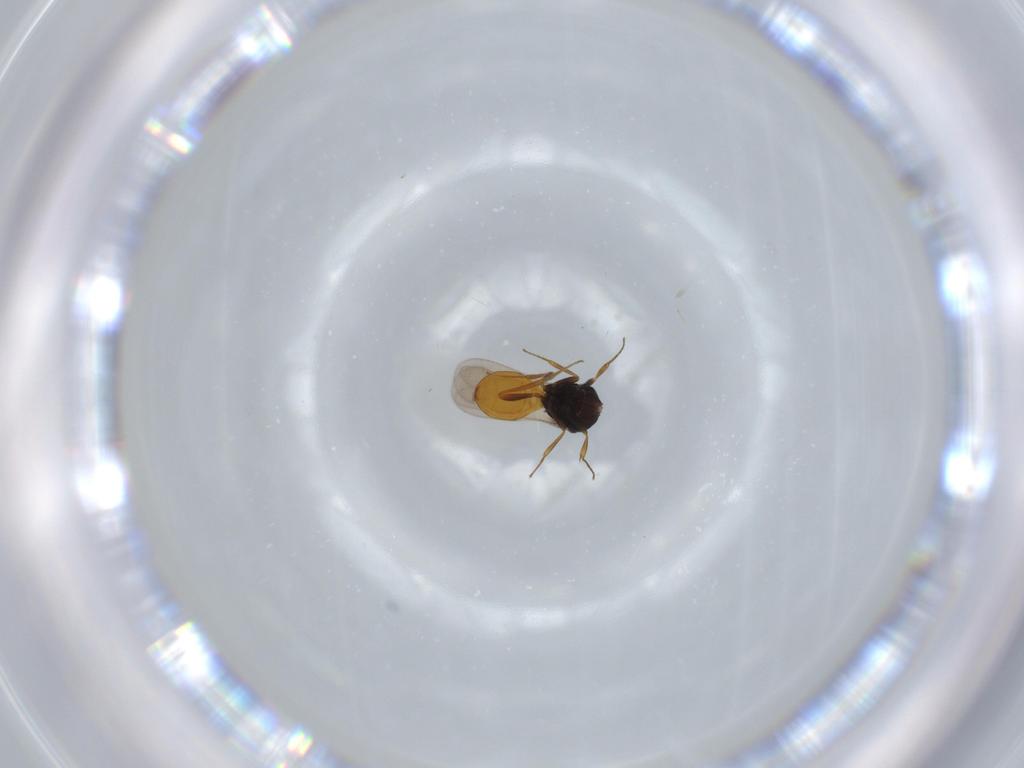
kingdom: Animalia
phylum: Arthropoda
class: Insecta
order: Hymenoptera
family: Scelionidae
